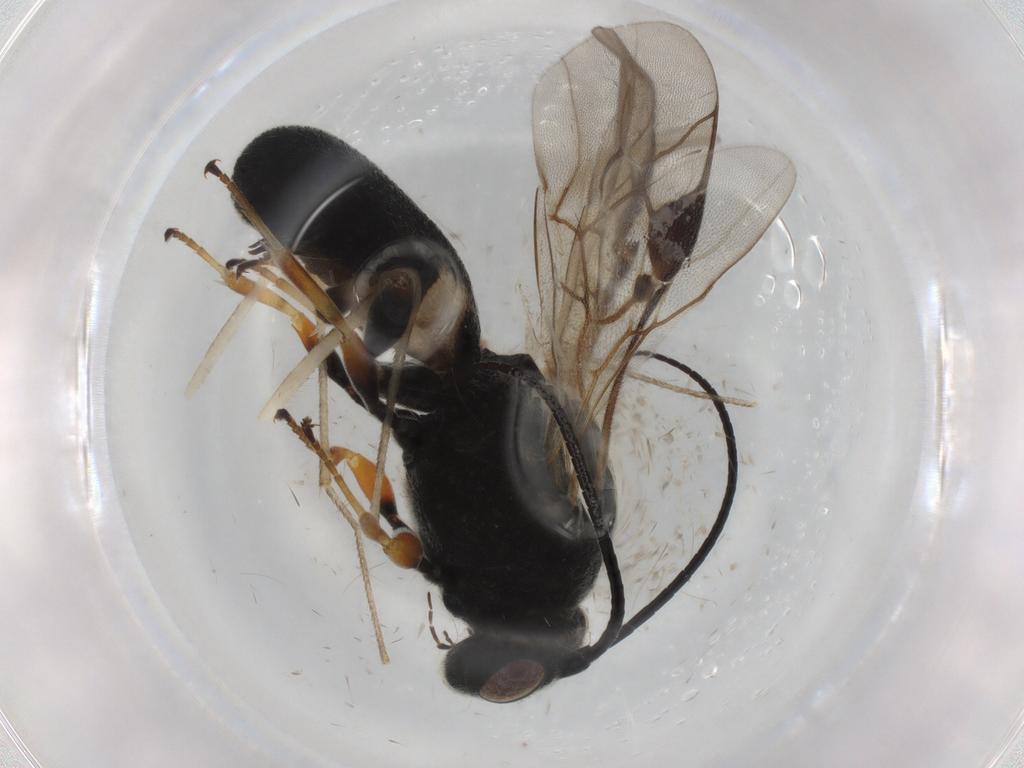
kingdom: Animalia
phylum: Arthropoda
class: Insecta
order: Hymenoptera
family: Braconidae
